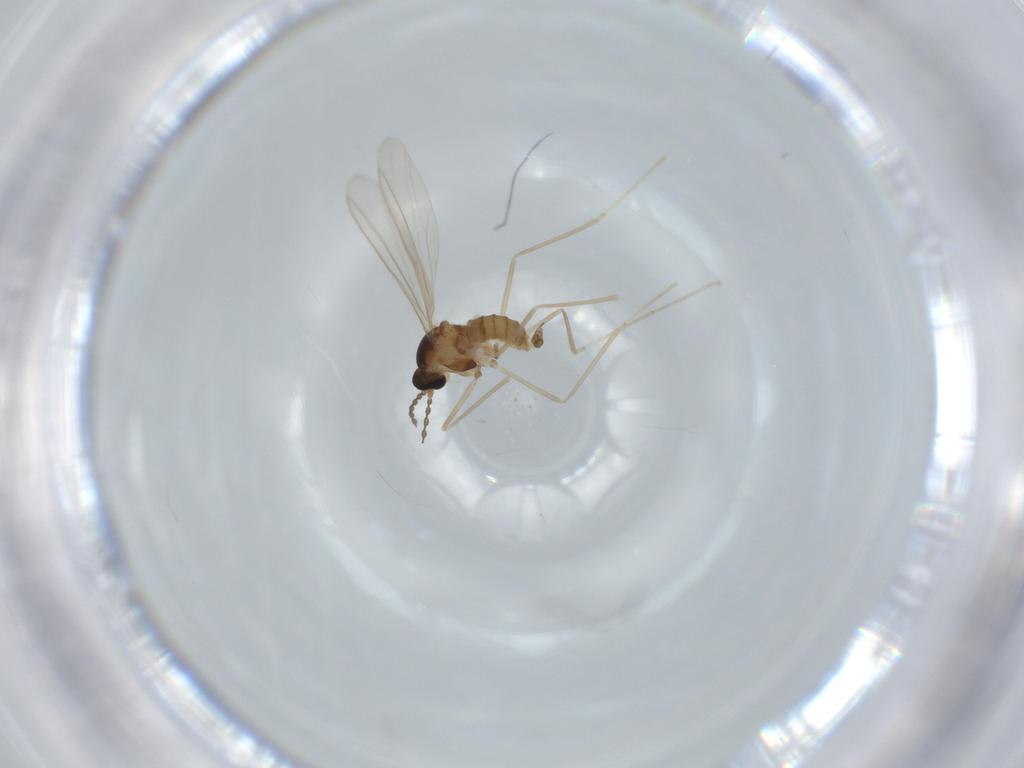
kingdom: Animalia
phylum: Arthropoda
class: Insecta
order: Diptera
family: Cecidomyiidae
